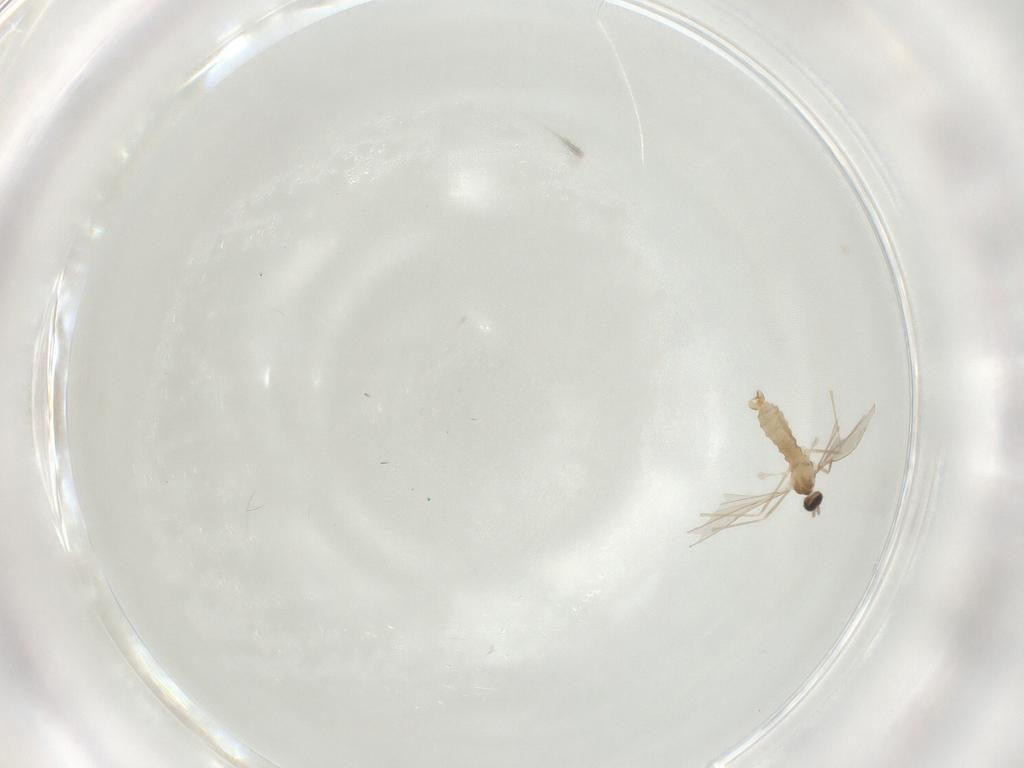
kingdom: Animalia
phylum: Arthropoda
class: Insecta
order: Diptera
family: Cecidomyiidae
